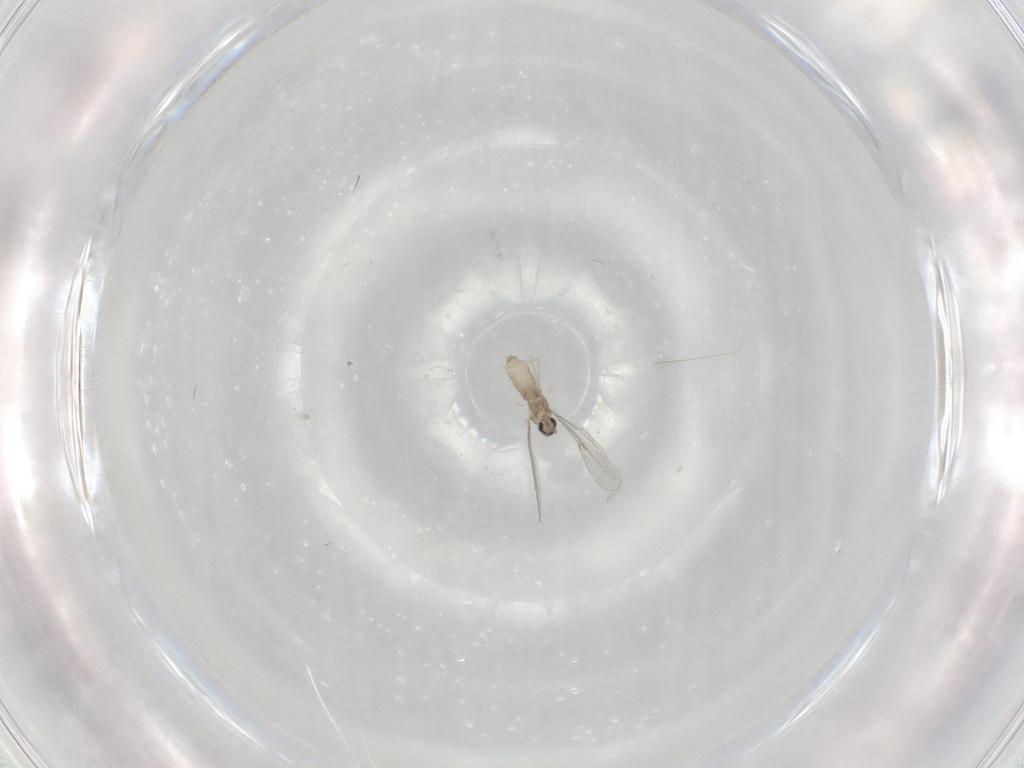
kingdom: Animalia
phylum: Arthropoda
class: Insecta
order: Diptera
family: Cecidomyiidae
